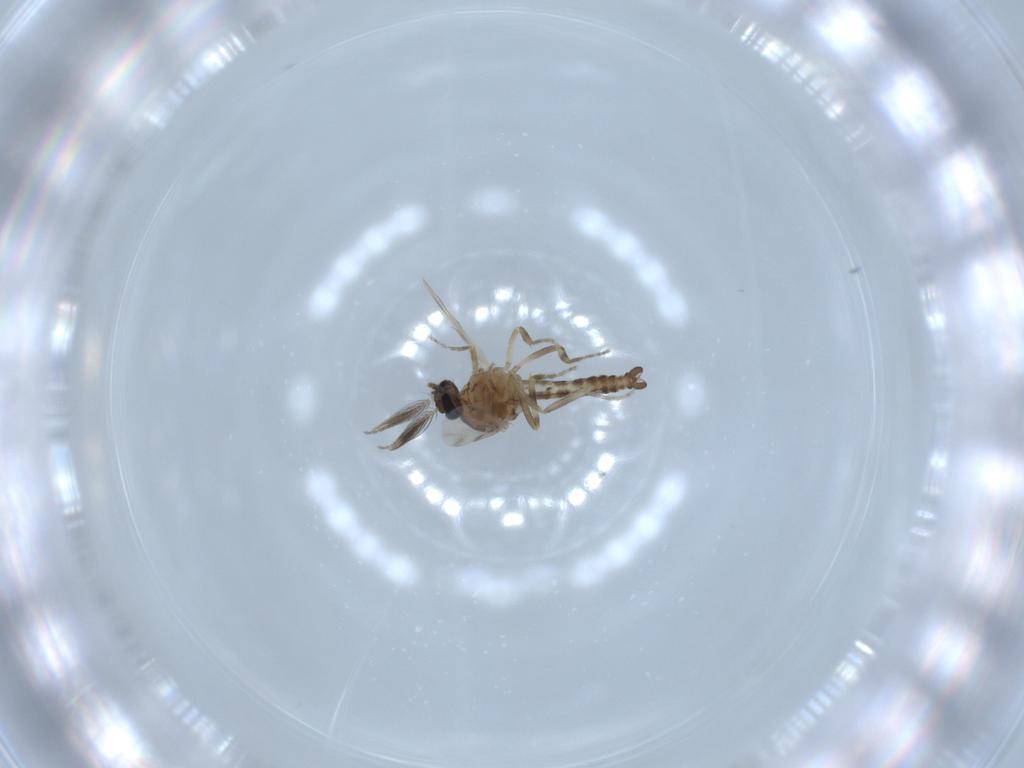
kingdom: Animalia
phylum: Arthropoda
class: Insecta
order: Diptera
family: Ceratopogonidae
